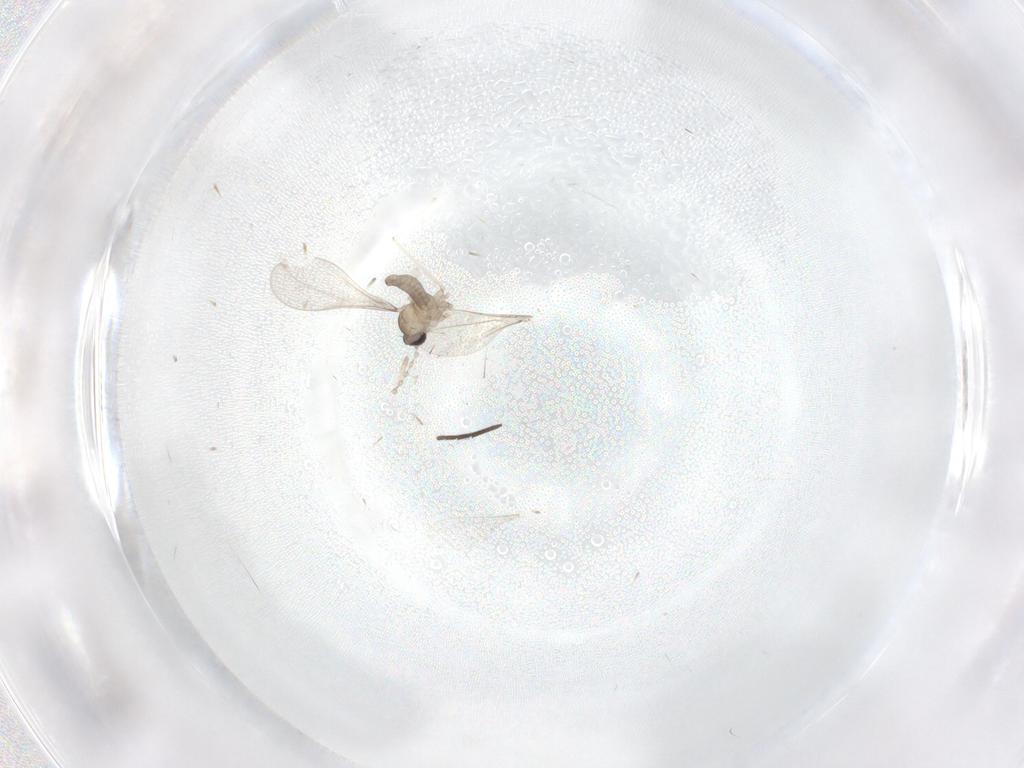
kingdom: Animalia
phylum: Arthropoda
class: Insecta
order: Diptera
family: Cecidomyiidae
